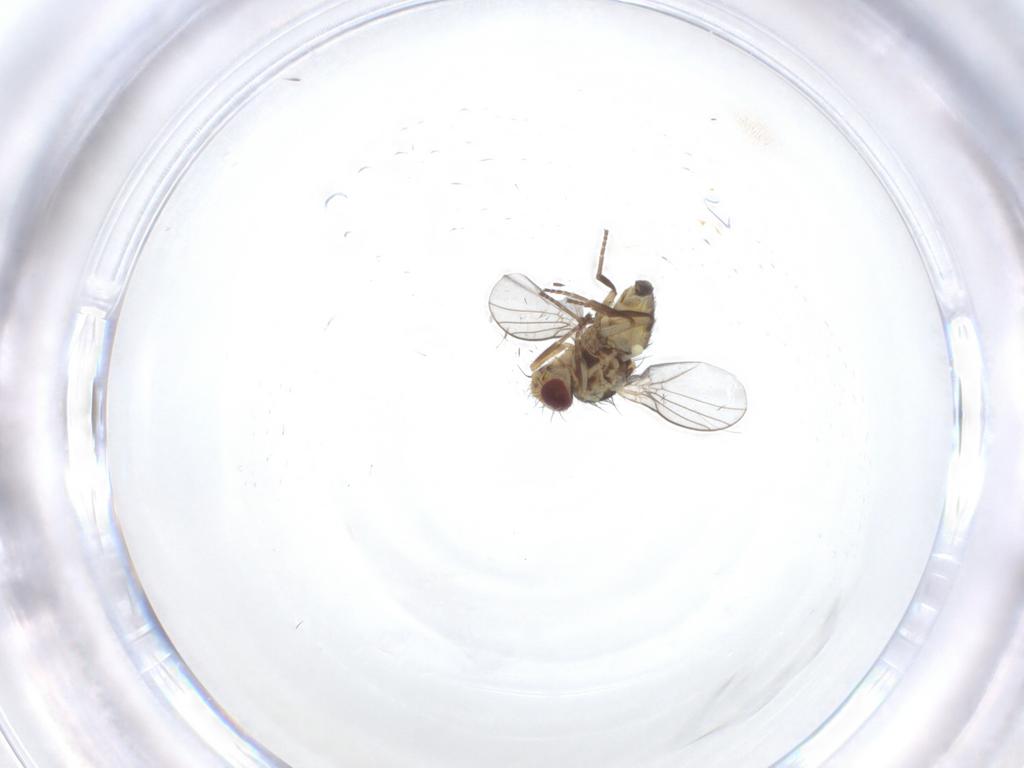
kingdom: Animalia
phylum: Arthropoda
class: Insecta
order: Diptera
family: Agromyzidae
